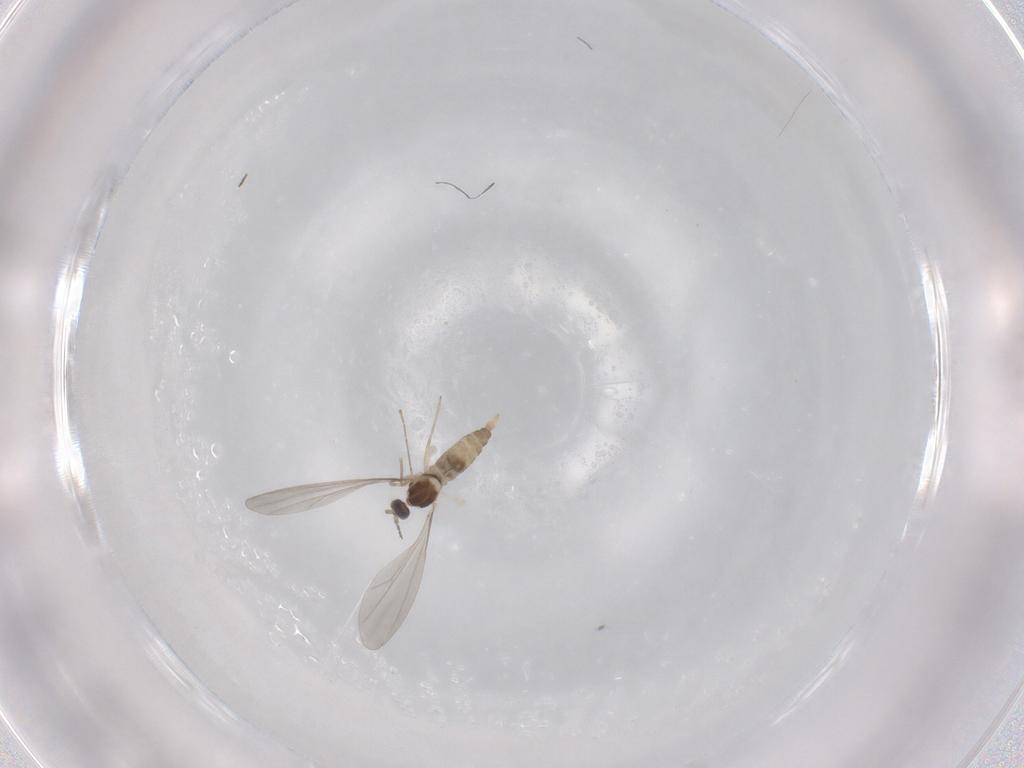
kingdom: Animalia
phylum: Arthropoda
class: Insecta
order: Diptera
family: Cecidomyiidae
